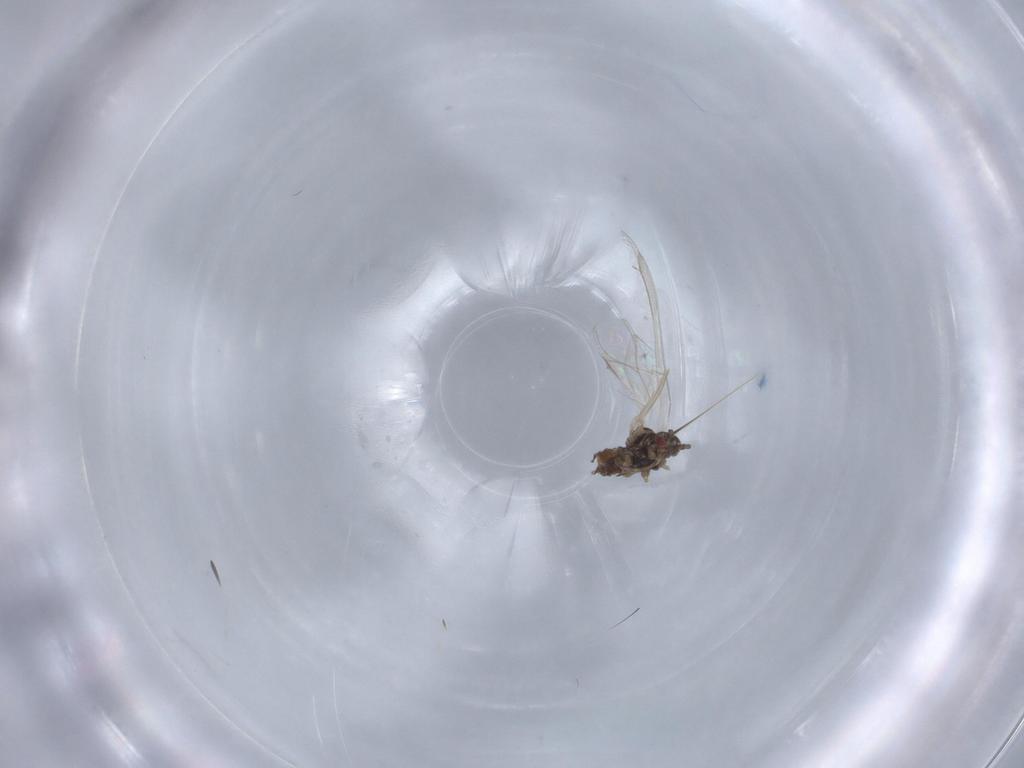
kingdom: Animalia
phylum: Arthropoda
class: Insecta
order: Hemiptera
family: Aphididae
